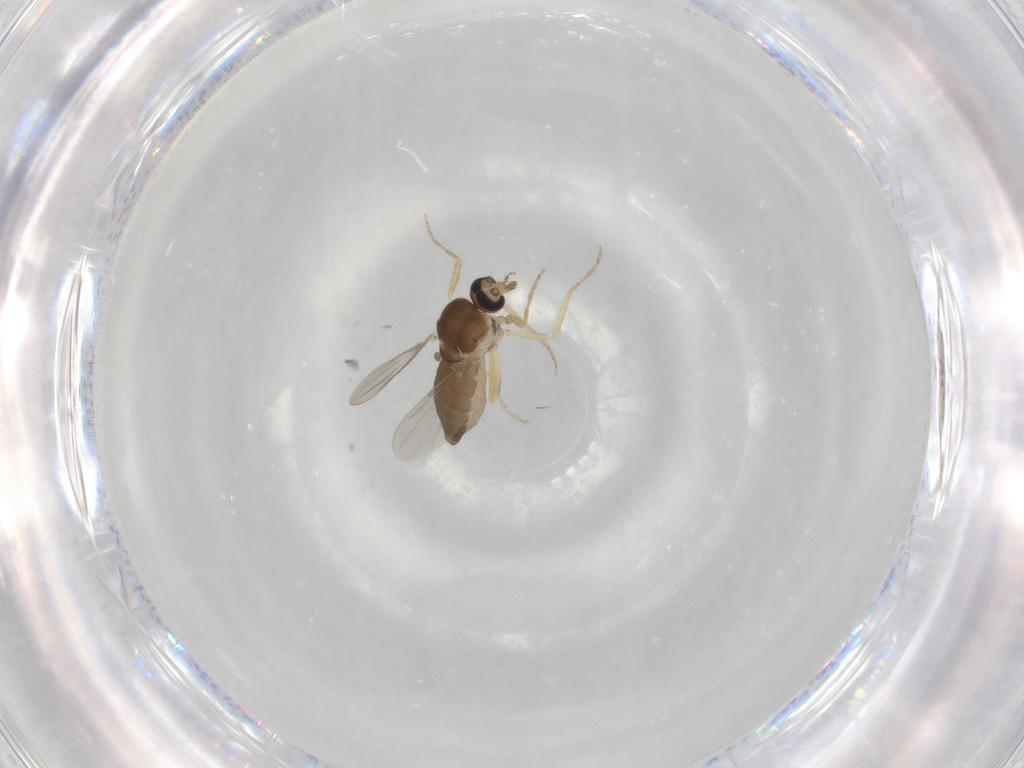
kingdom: Animalia
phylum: Arthropoda
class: Insecta
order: Diptera
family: Ceratopogonidae
